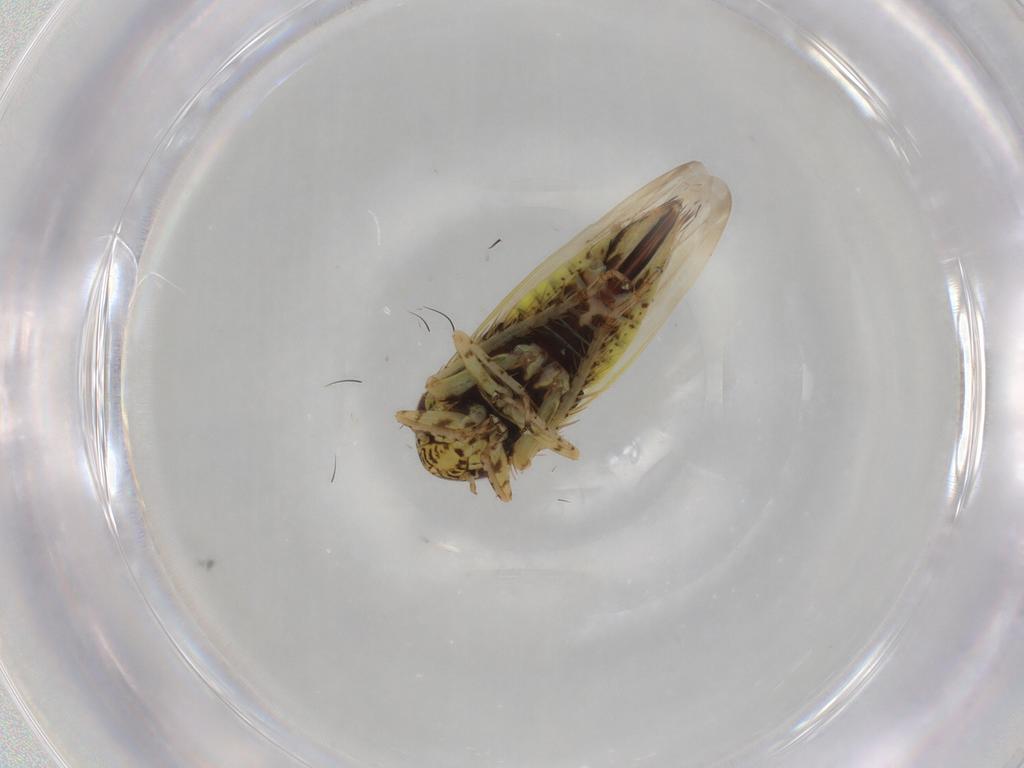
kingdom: Animalia
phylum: Arthropoda
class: Insecta
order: Hemiptera
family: Cicadellidae
